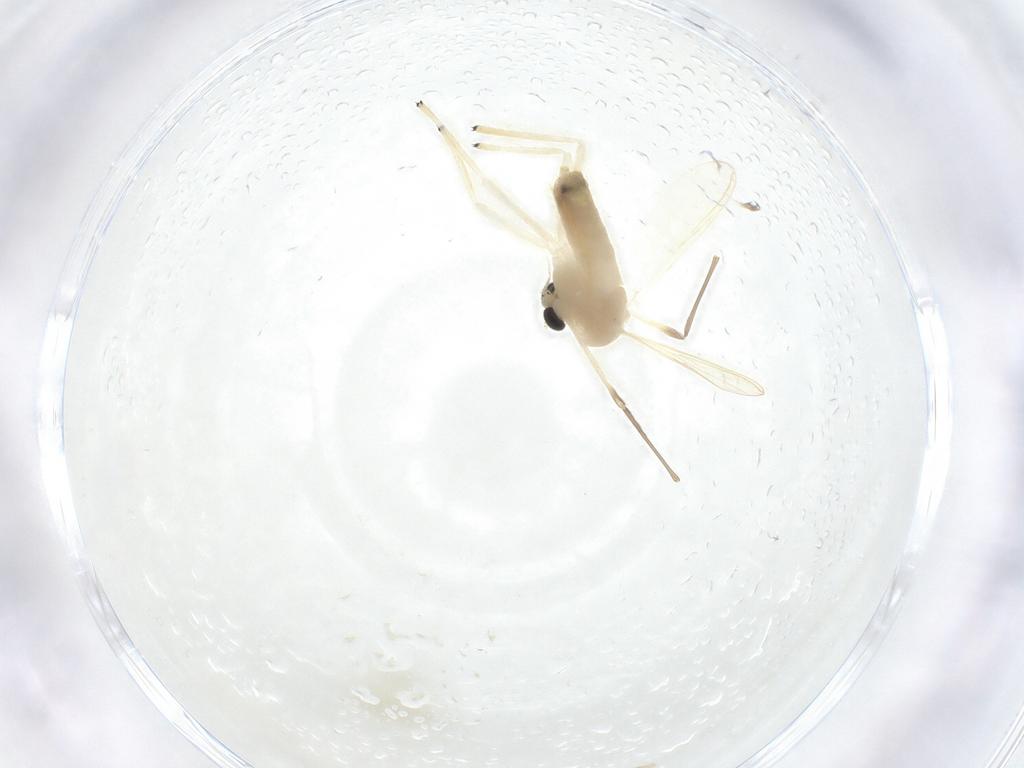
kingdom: Animalia
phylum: Arthropoda
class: Insecta
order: Diptera
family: Chironomidae
